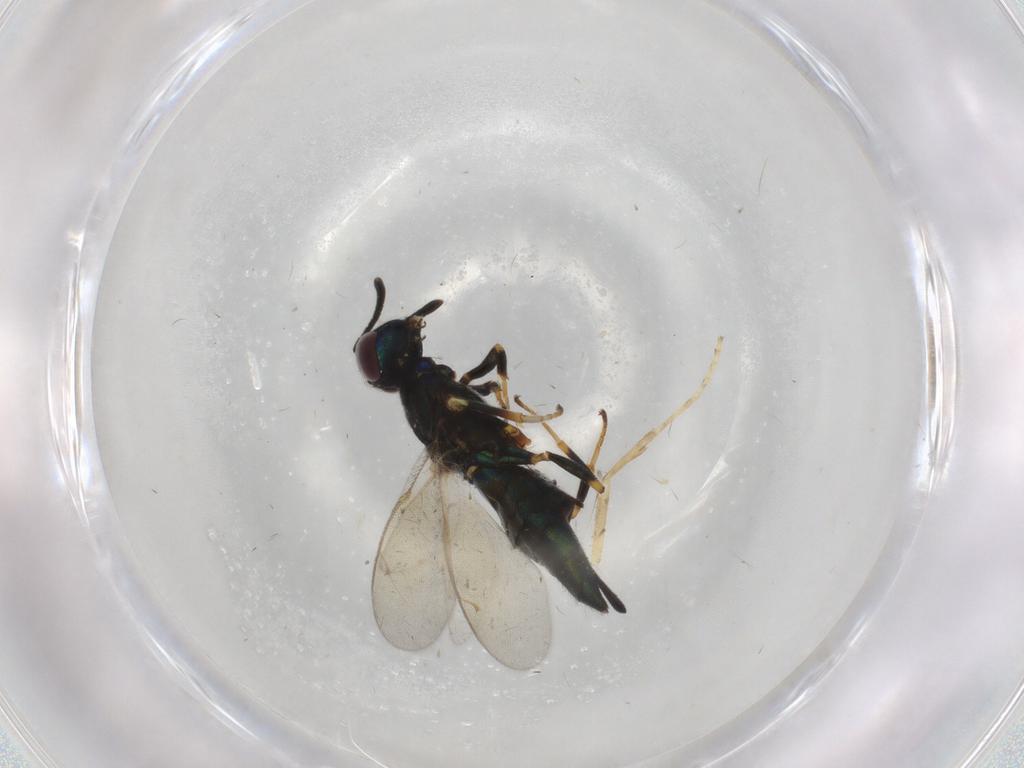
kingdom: Animalia
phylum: Arthropoda
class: Insecta
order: Hymenoptera
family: Eupelmidae
